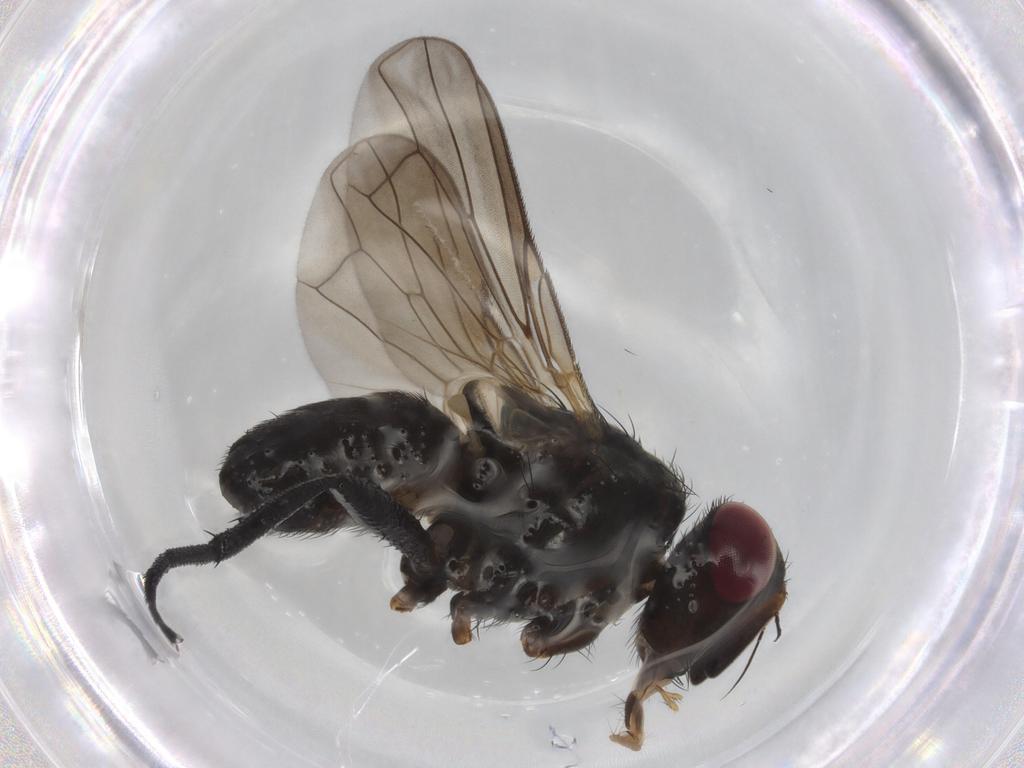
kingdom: Animalia
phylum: Arthropoda
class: Insecta
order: Diptera
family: Tachinidae
